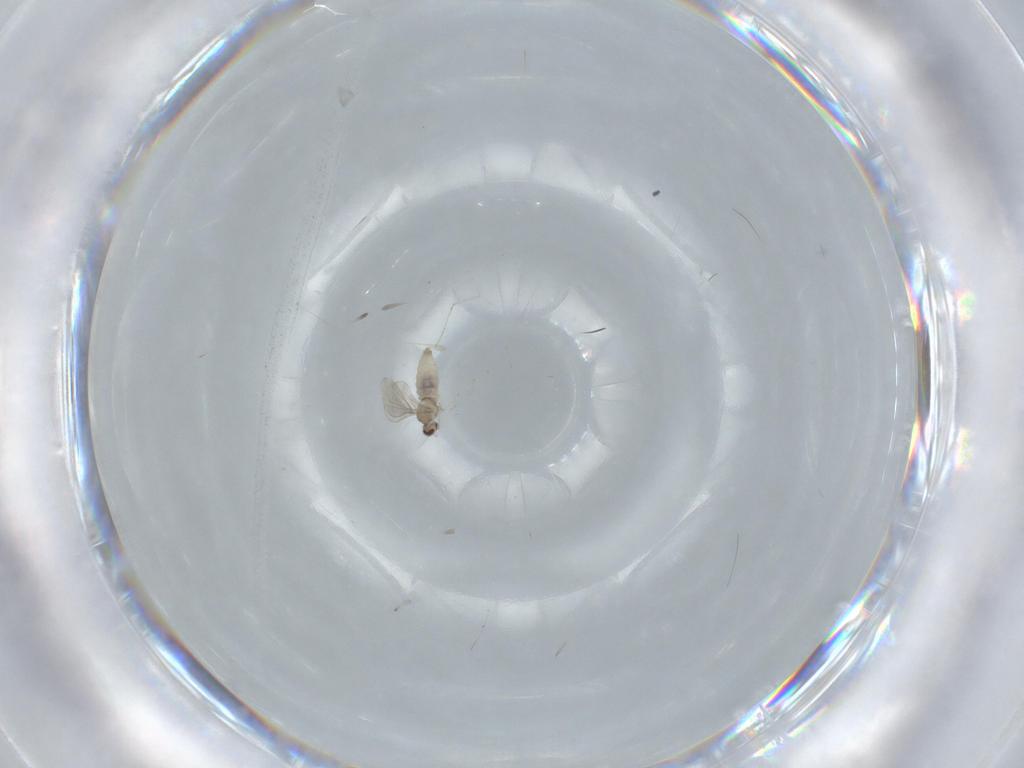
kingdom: Animalia
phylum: Arthropoda
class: Insecta
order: Diptera
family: Cecidomyiidae
